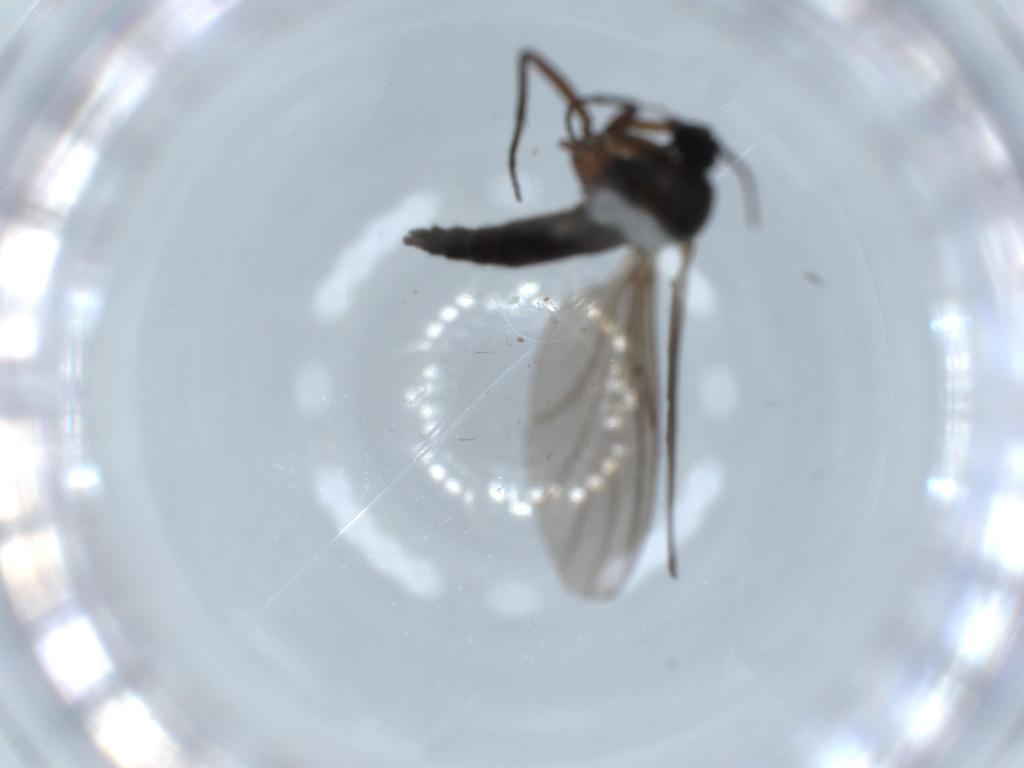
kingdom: Animalia
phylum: Arthropoda
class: Insecta
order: Diptera
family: Sciaridae
